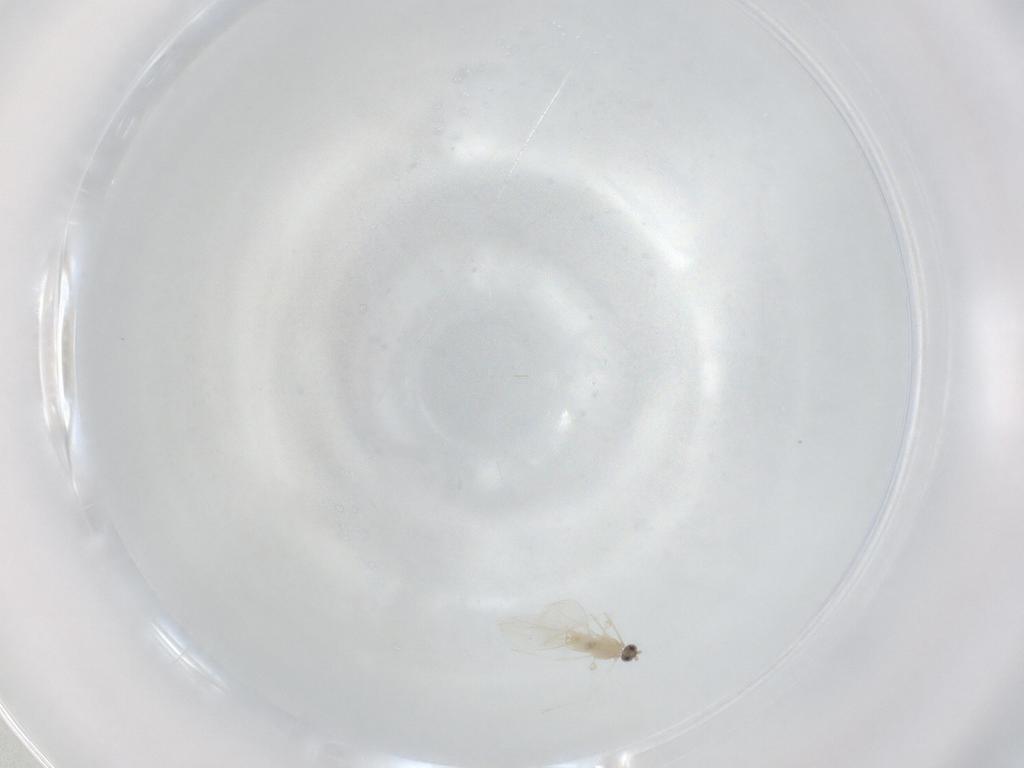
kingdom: Animalia
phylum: Arthropoda
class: Insecta
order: Diptera
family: Cecidomyiidae
